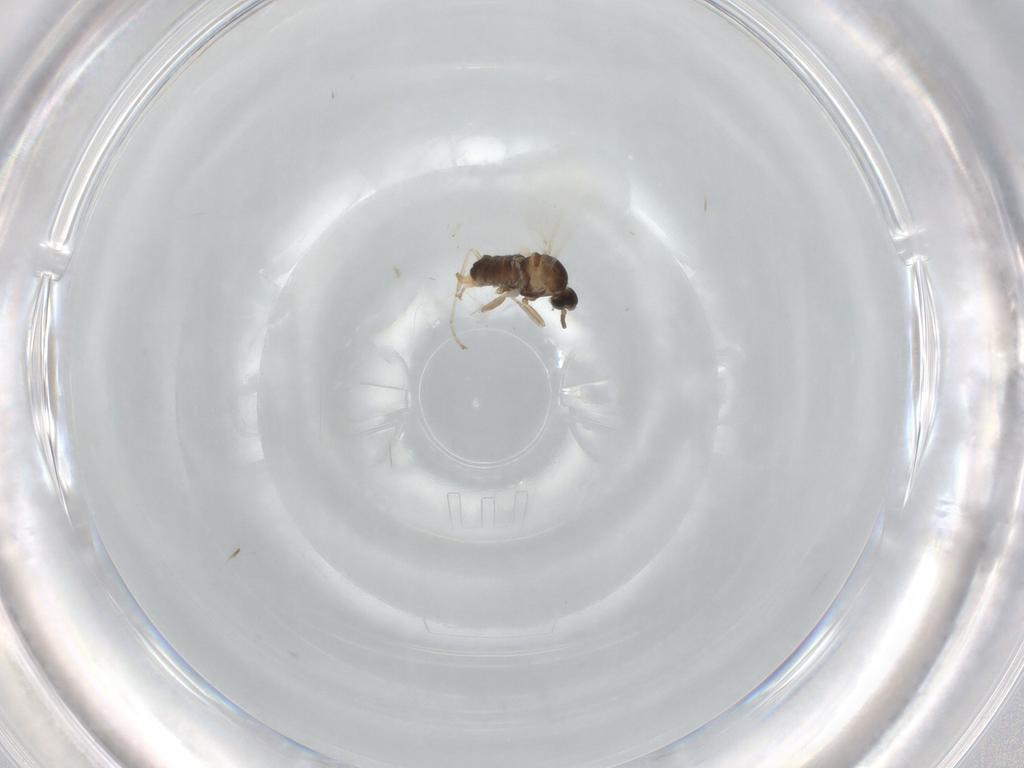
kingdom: Animalia
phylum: Arthropoda
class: Insecta
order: Diptera
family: Cecidomyiidae
